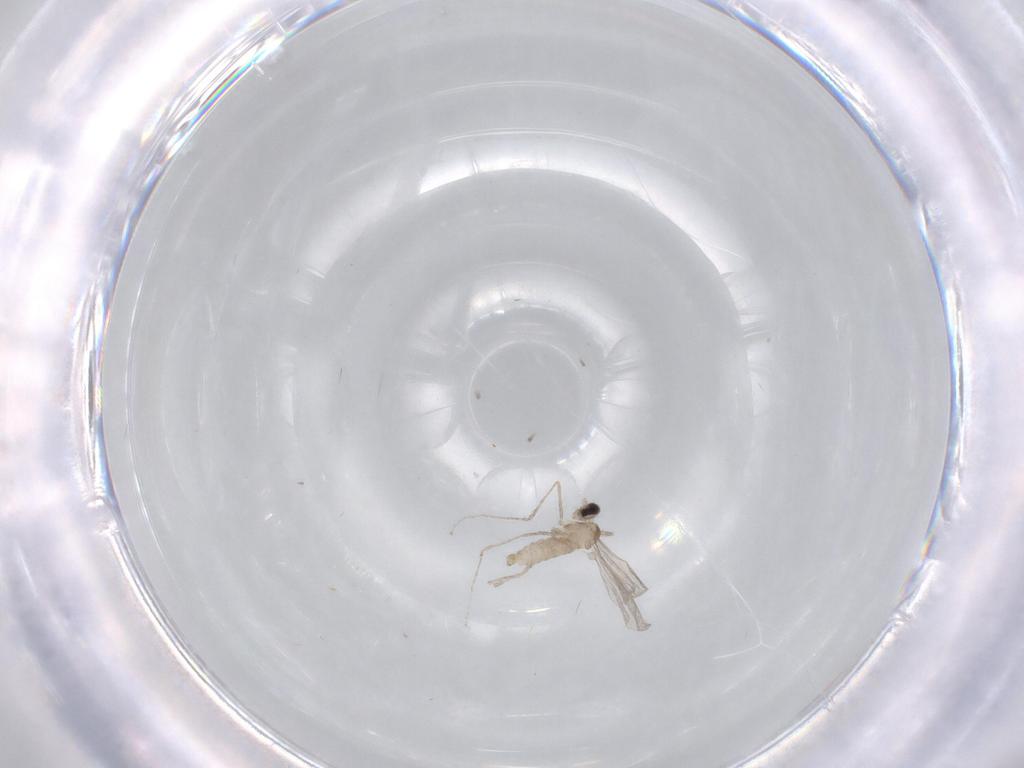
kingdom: Animalia
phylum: Arthropoda
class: Insecta
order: Diptera
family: Cecidomyiidae
